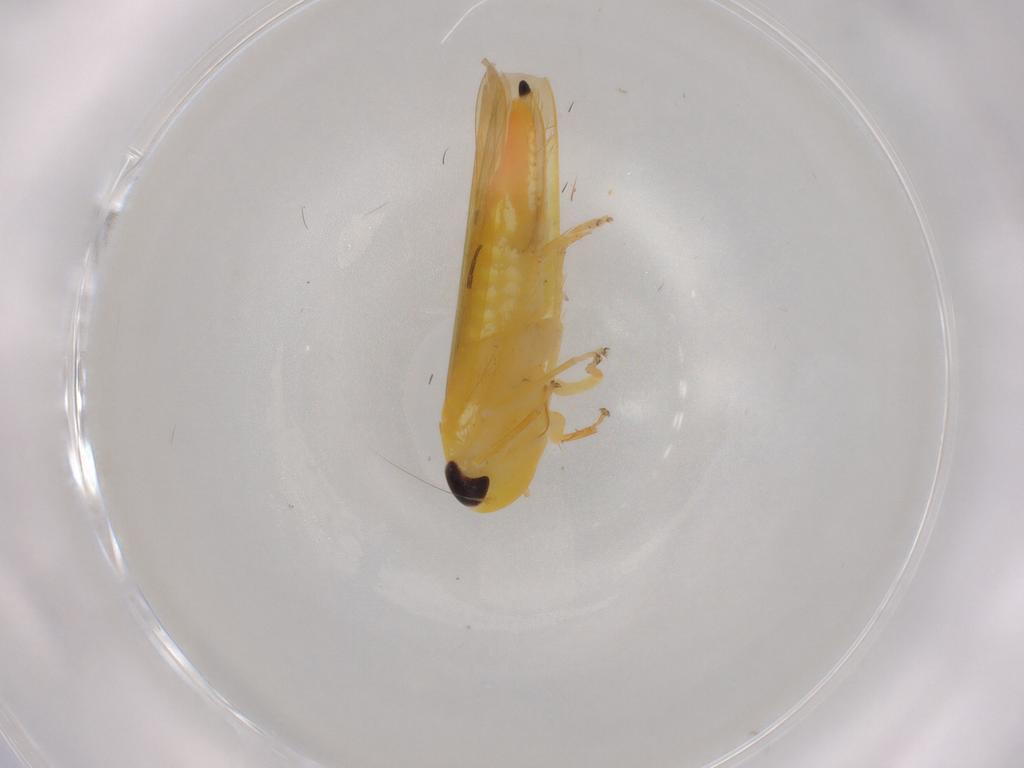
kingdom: Animalia
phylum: Arthropoda
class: Insecta
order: Hemiptera
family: Cicadellidae
